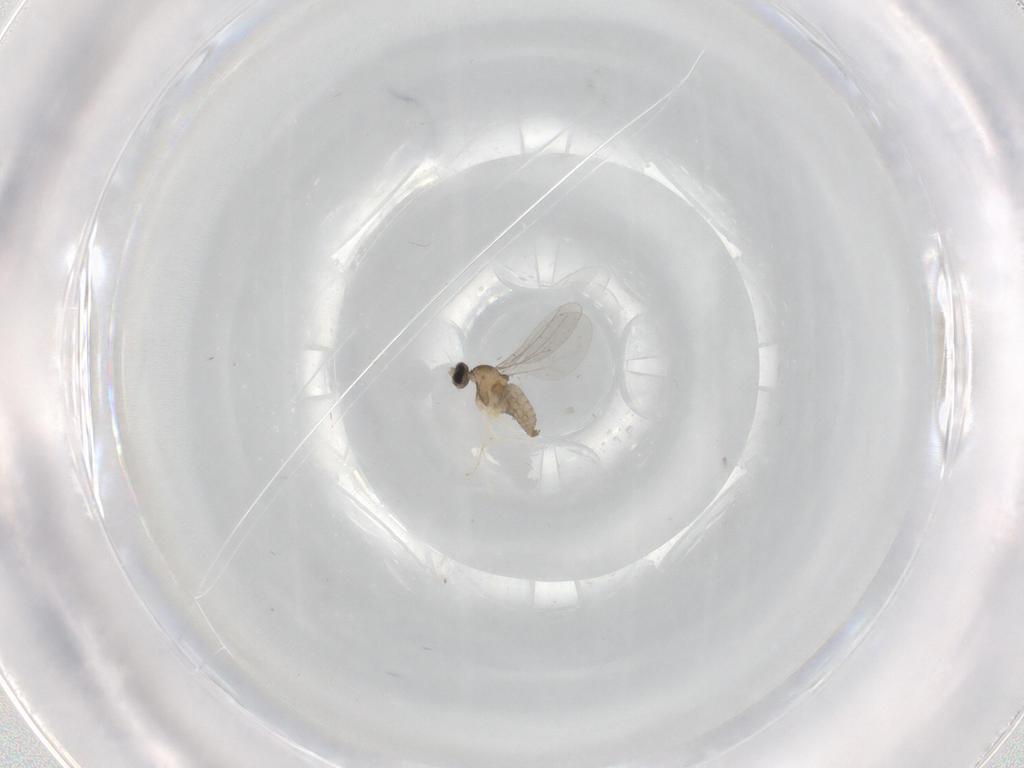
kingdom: Animalia
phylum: Arthropoda
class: Insecta
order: Diptera
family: Cecidomyiidae
